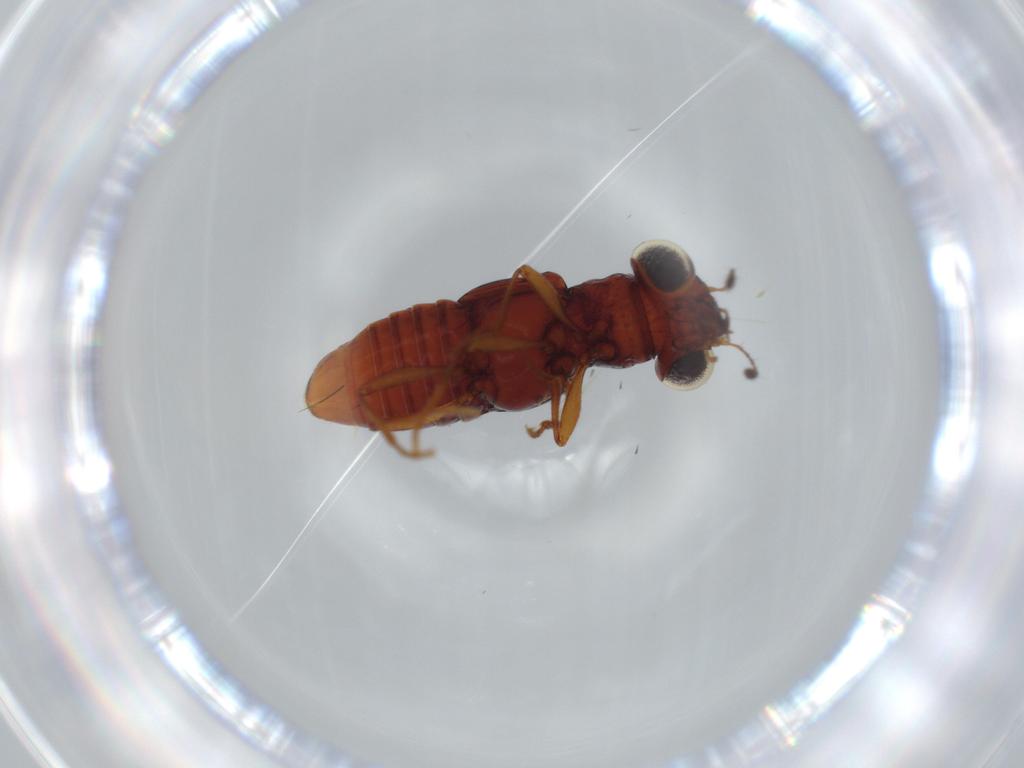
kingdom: Animalia
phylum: Arthropoda
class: Insecta
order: Coleoptera
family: Staphylinidae
